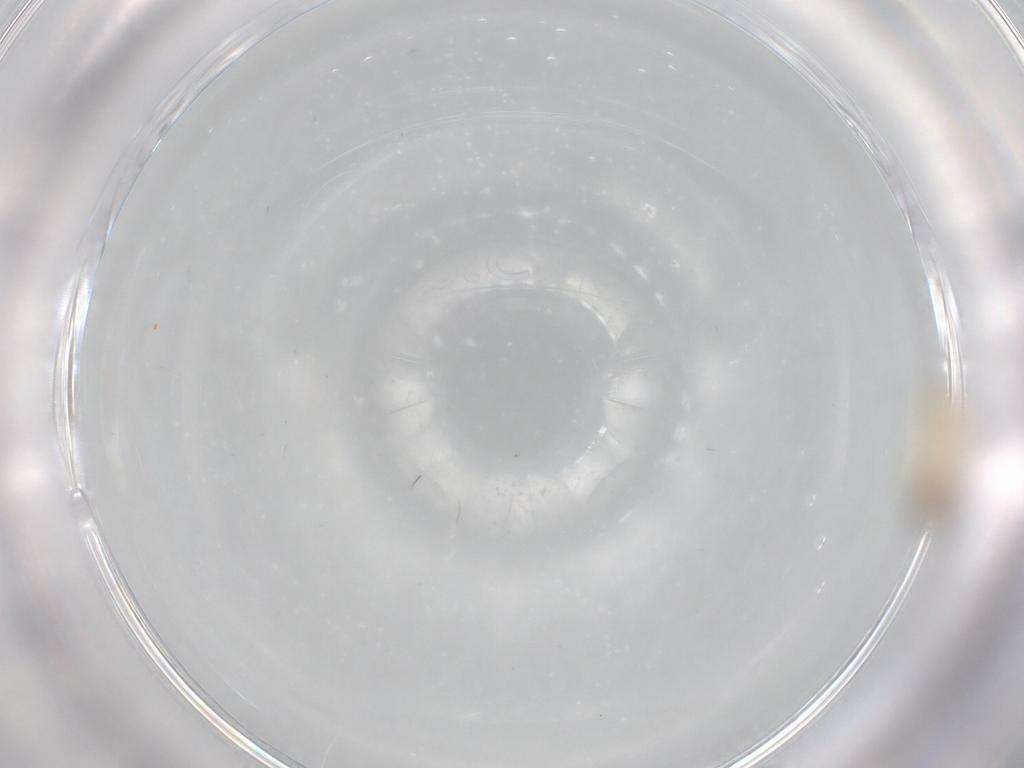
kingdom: Animalia
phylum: Arthropoda
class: Insecta
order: Diptera
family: Cecidomyiidae
